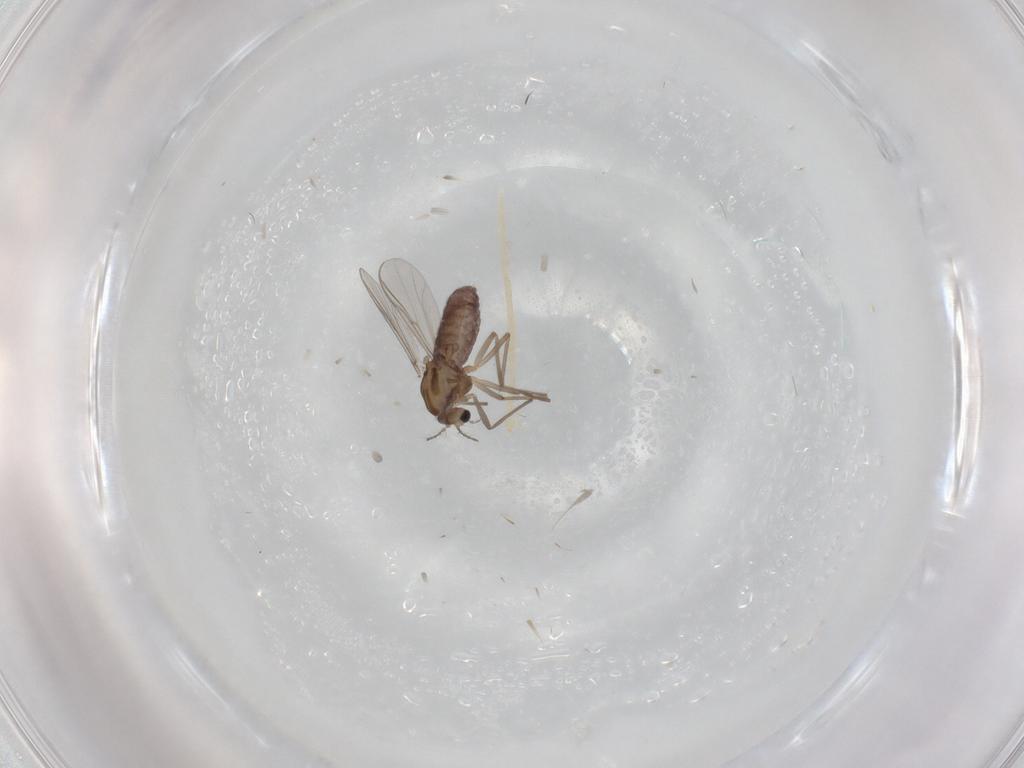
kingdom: Animalia
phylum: Arthropoda
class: Insecta
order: Diptera
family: Chironomidae
